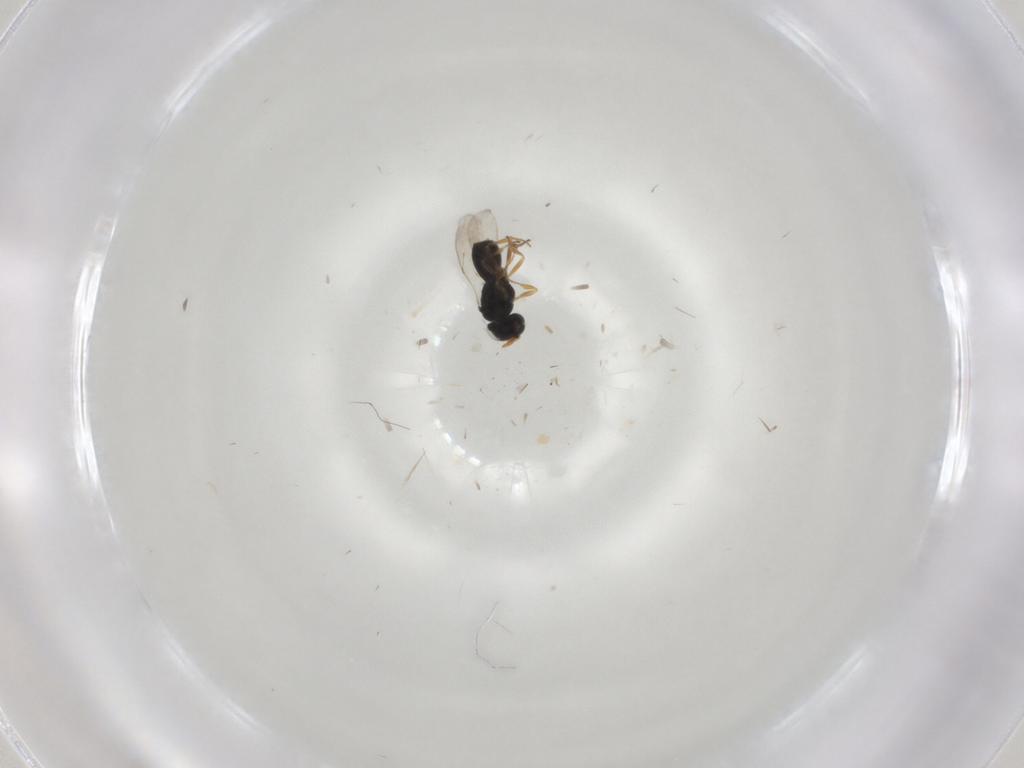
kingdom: Animalia
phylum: Arthropoda
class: Insecta
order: Hymenoptera
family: Scelionidae
